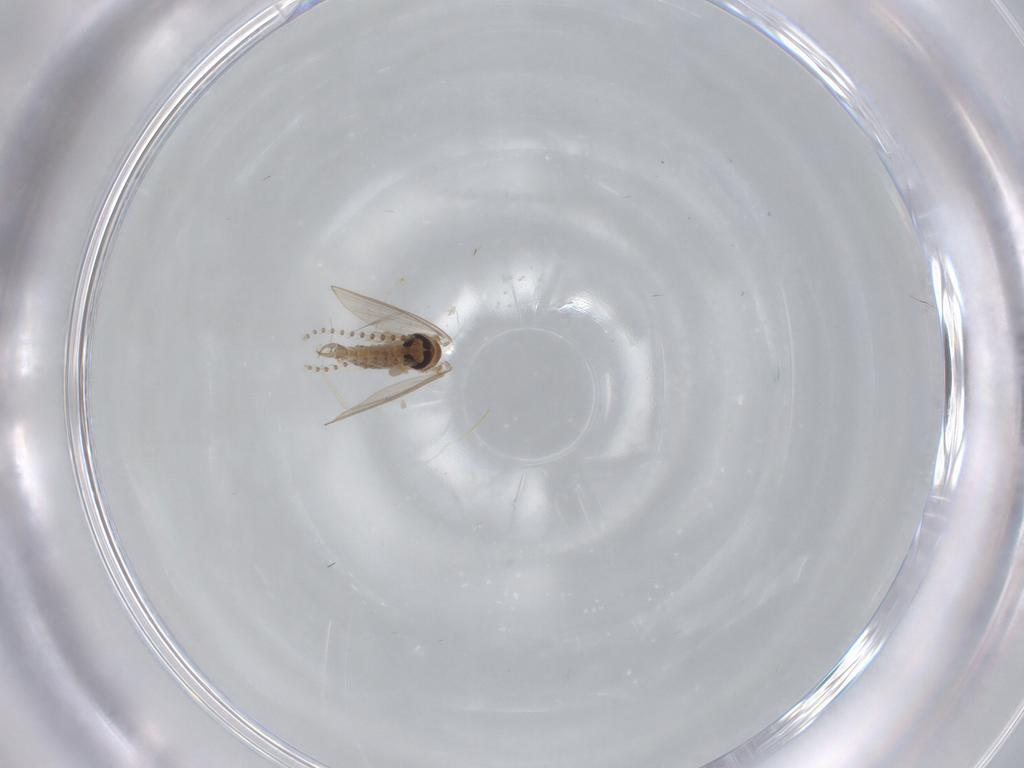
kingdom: Animalia
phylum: Arthropoda
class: Insecta
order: Diptera
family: Psychodidae
